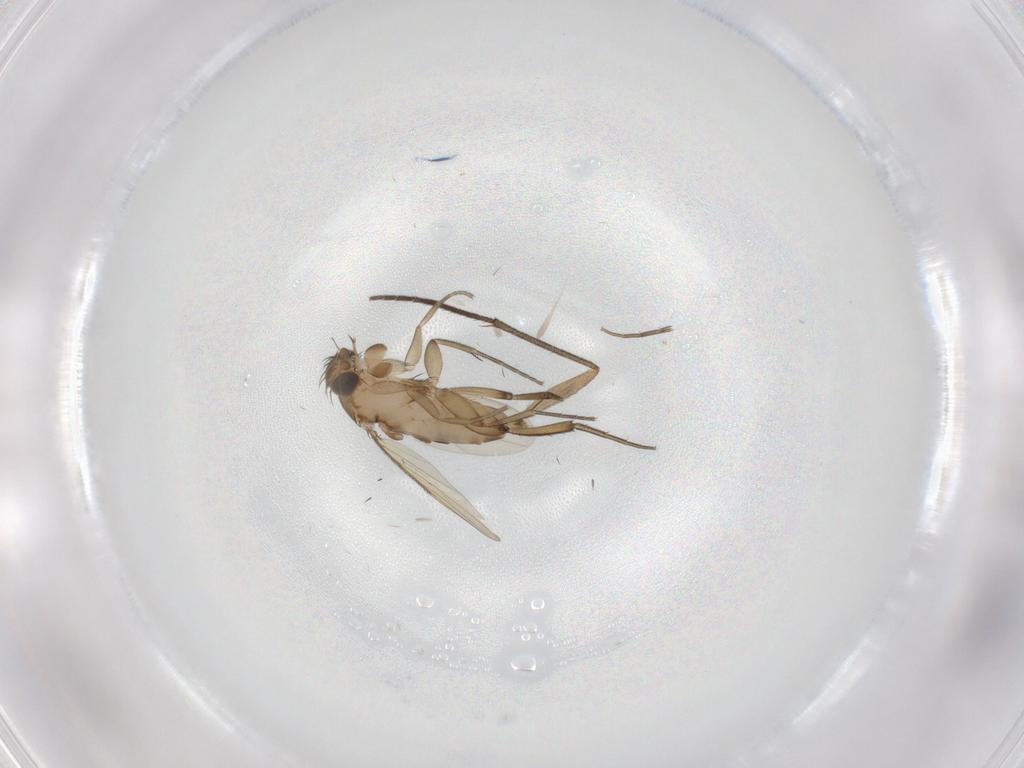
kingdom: Animalia
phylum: Arthropoda
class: Insecta
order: Diptera
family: Phoridae
